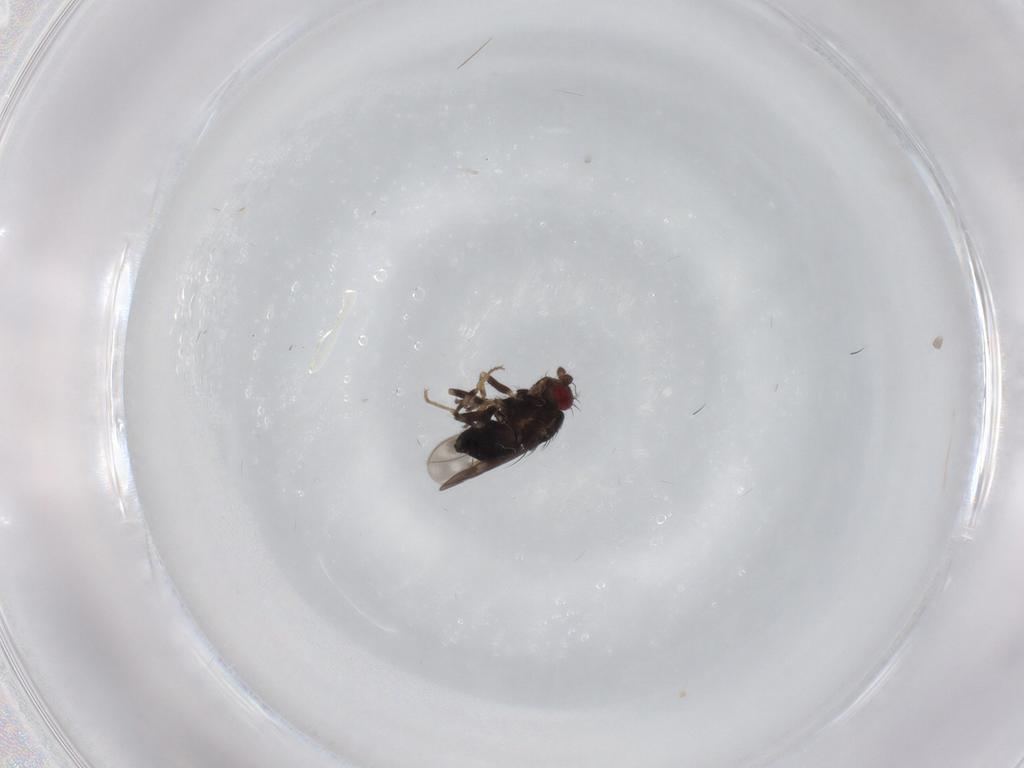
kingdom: Animalia
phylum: Arthropoda
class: Insecta
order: Diptera
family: Sphaeroceridae
